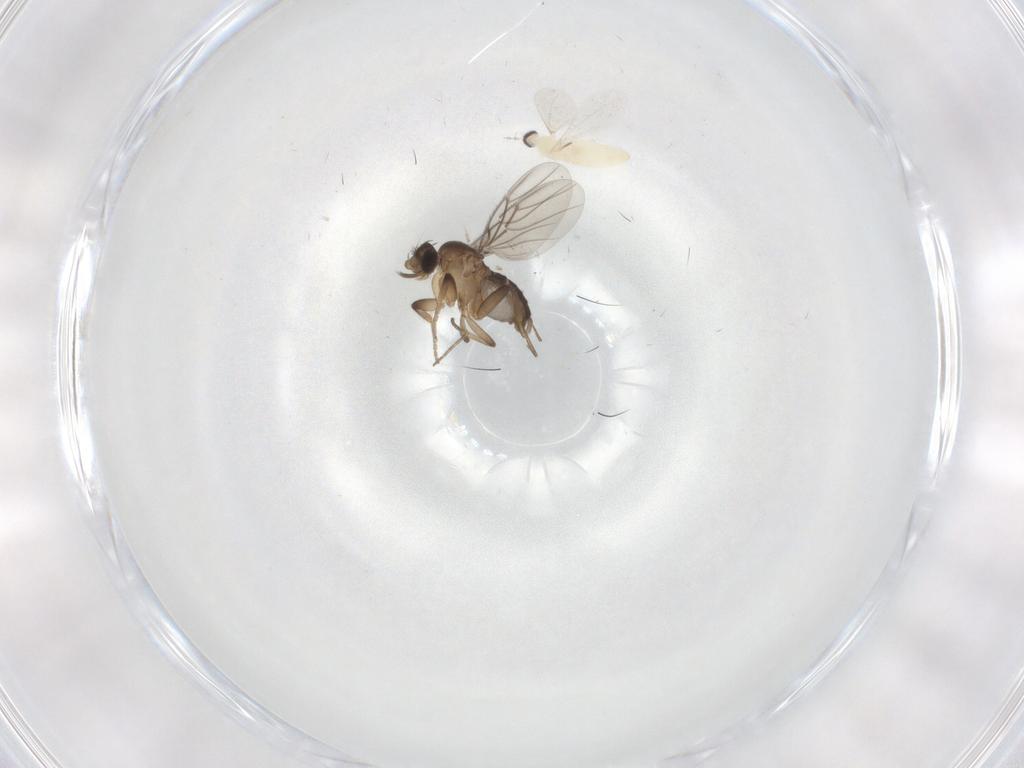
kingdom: Animalia
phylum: Arthropoda
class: Insecta
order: Diptera
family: Cecidomyiidae
